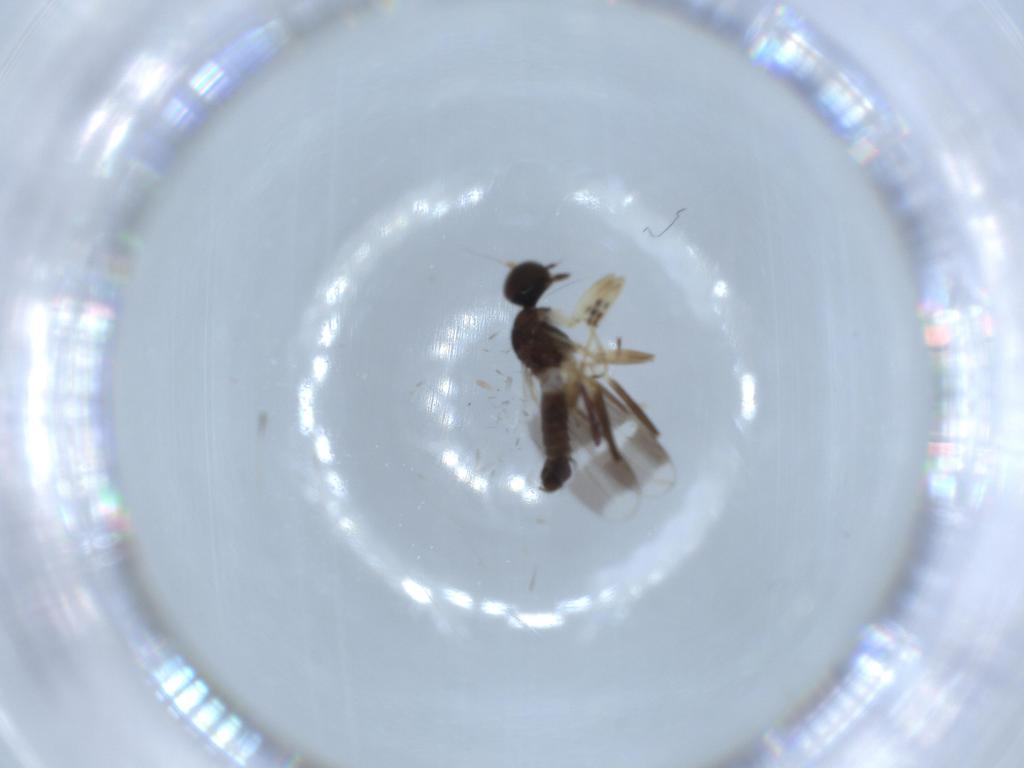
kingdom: Animalia
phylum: Arthropoda
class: Insecta
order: Diptera
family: Hybotidae
